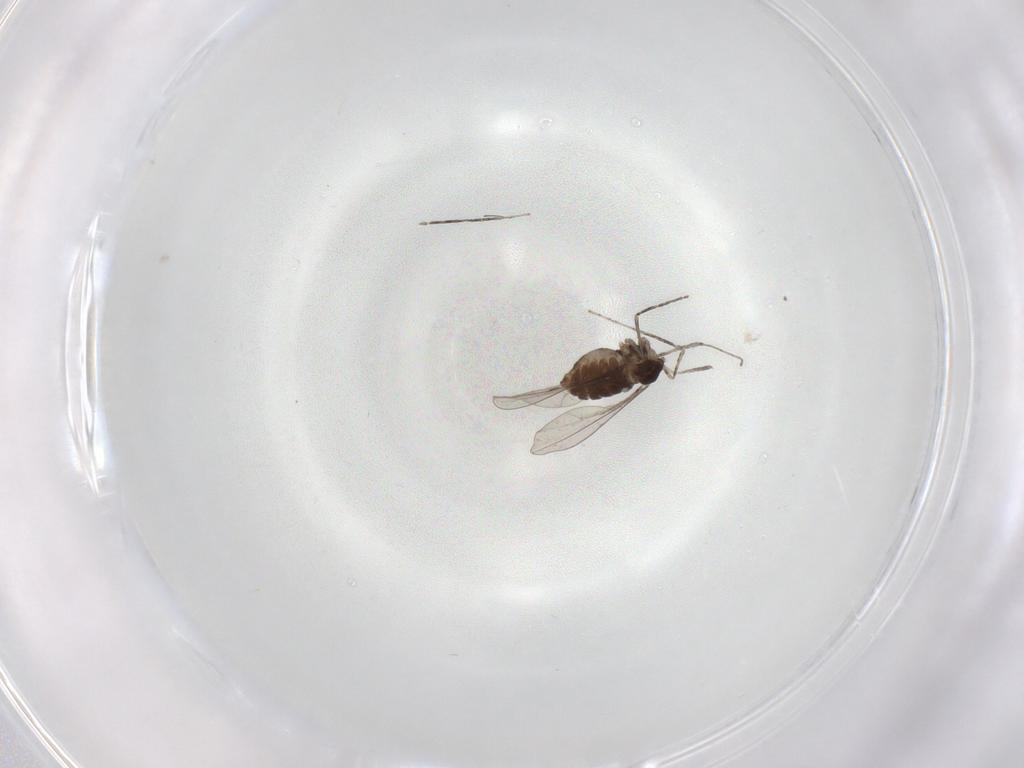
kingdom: Animalia
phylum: Arthropoda
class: Insecta
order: Diptera
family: Cecidomyiidae
